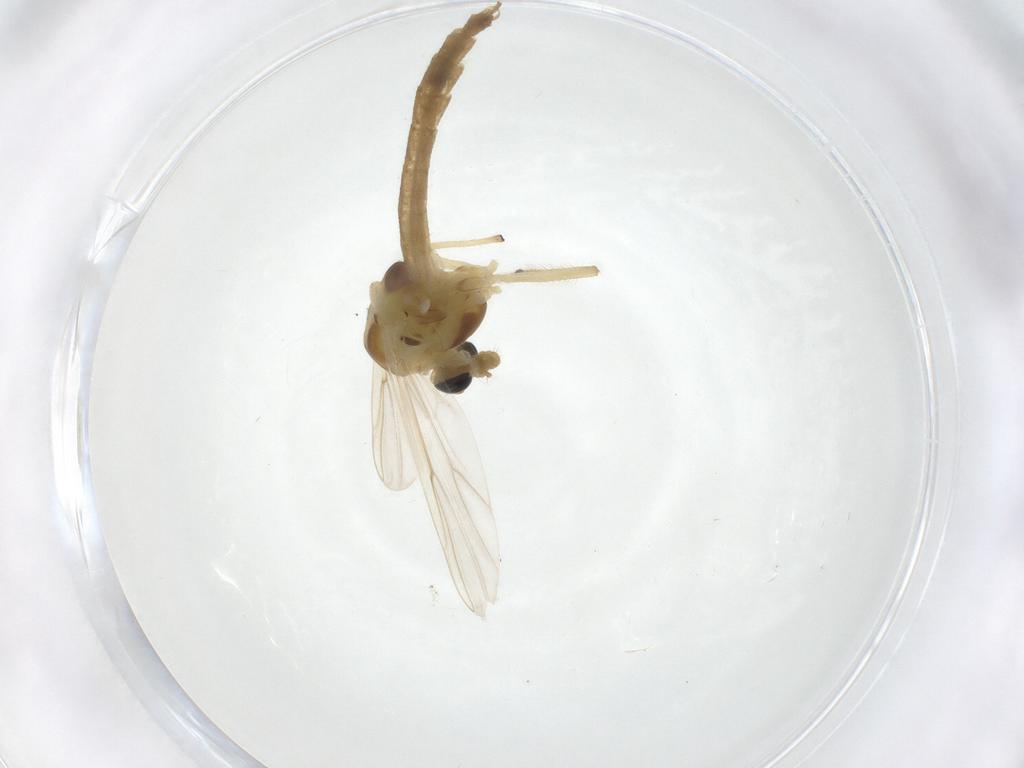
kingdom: Animalia
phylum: Arthropoda
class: Insecta
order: Diptera
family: Chironomidae
